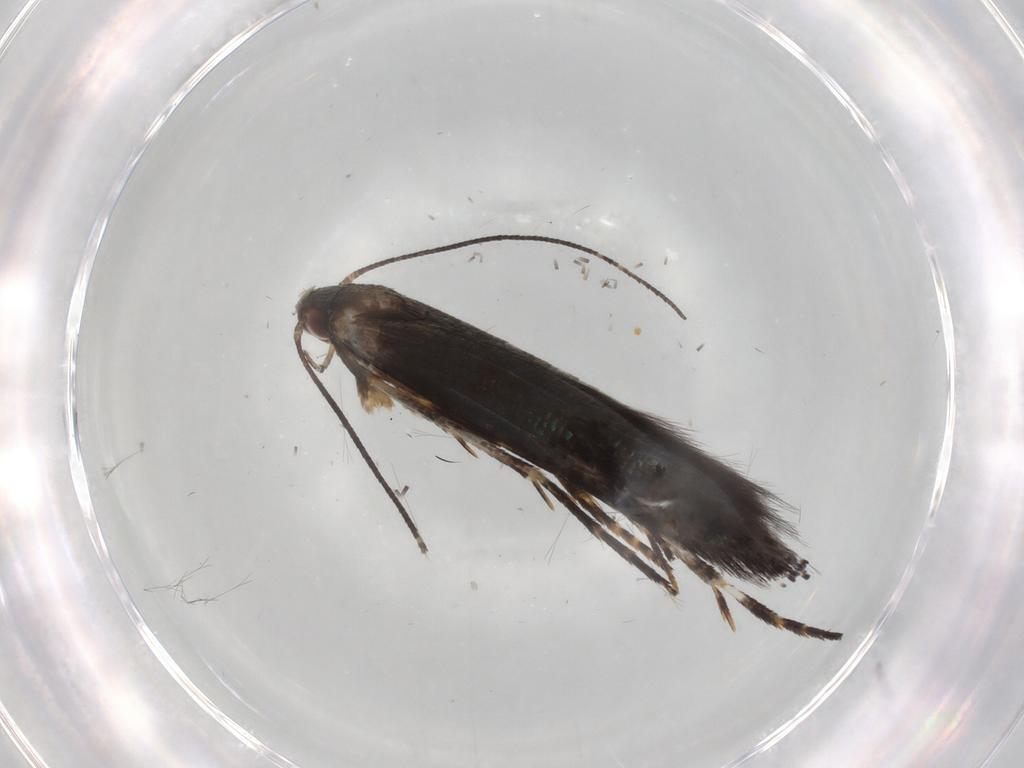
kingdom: Animalia
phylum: Arthropoda
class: Insecta
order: Lepidoptera
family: Momphidae
